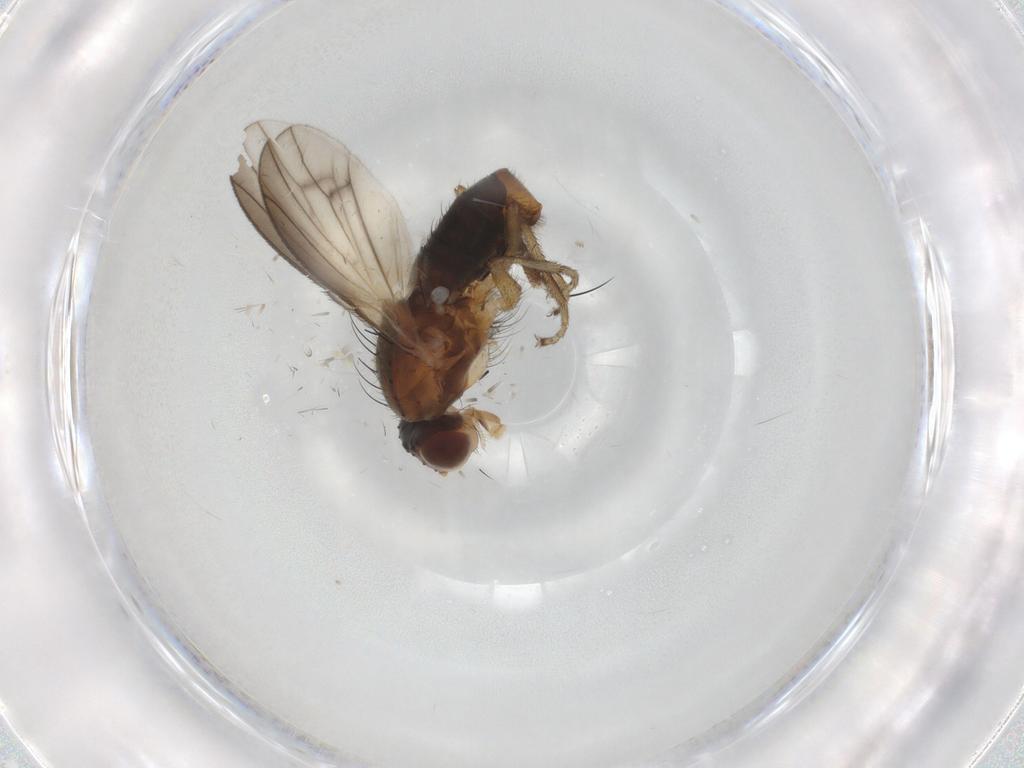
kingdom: Animalia
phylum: Arthropoda
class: Insecta
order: Diptera
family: Heleomyzidae
